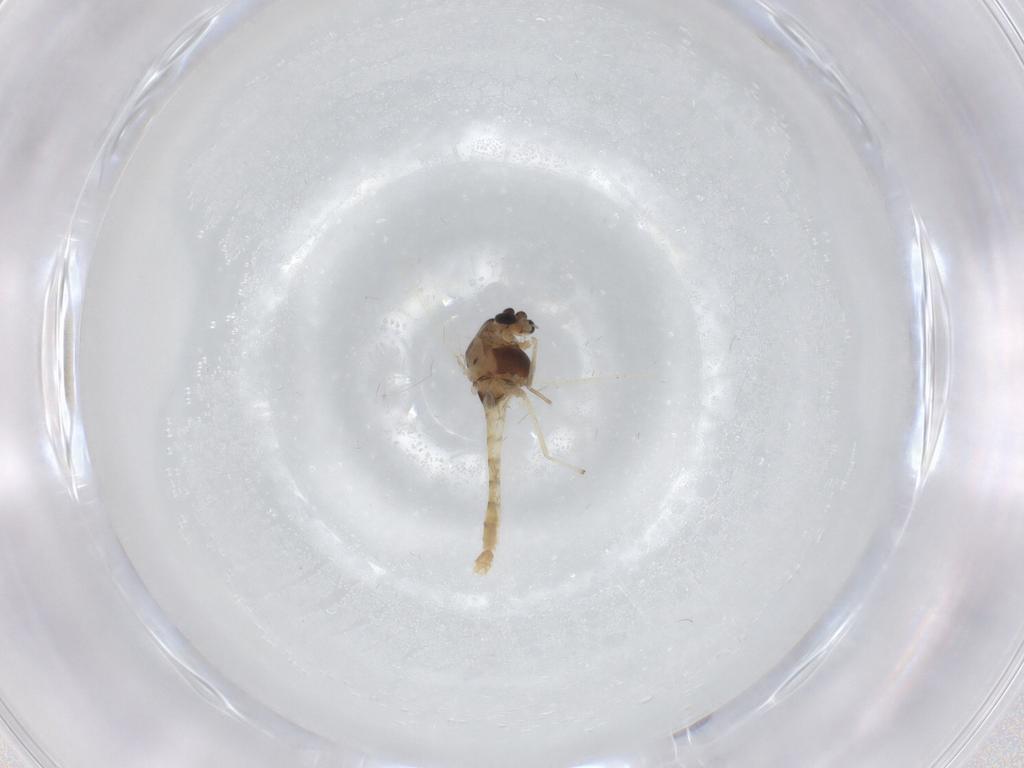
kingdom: Animalia
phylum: Arthropoda
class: Insecta
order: Diptera
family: Chironomidae
